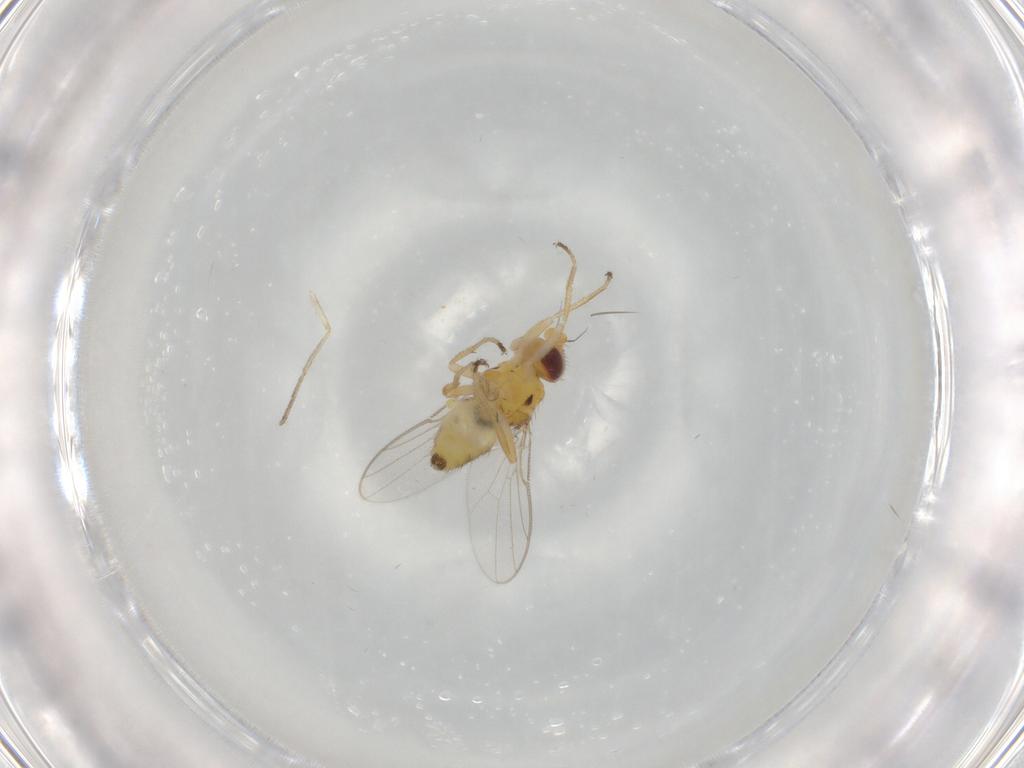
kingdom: Animalia
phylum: Arthropoda
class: Insecta
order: Diptera
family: Chloropidae
